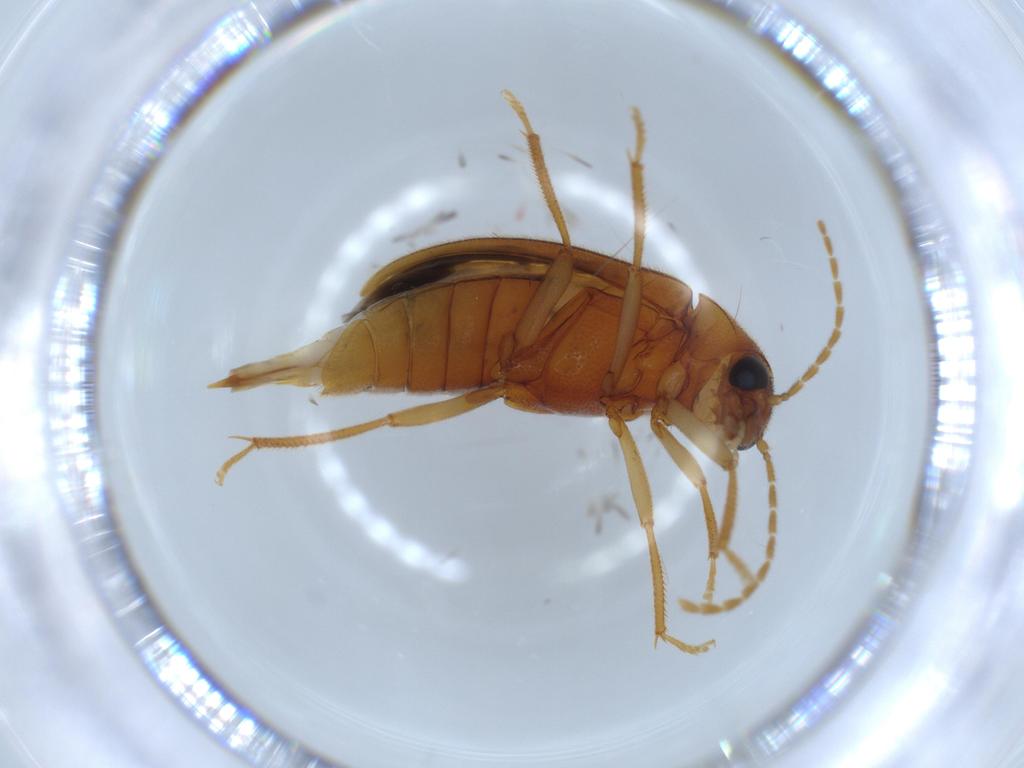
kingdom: Animalia
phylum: Arthropoda
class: Insecta
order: Coleoptera
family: Ptilodactylidae
